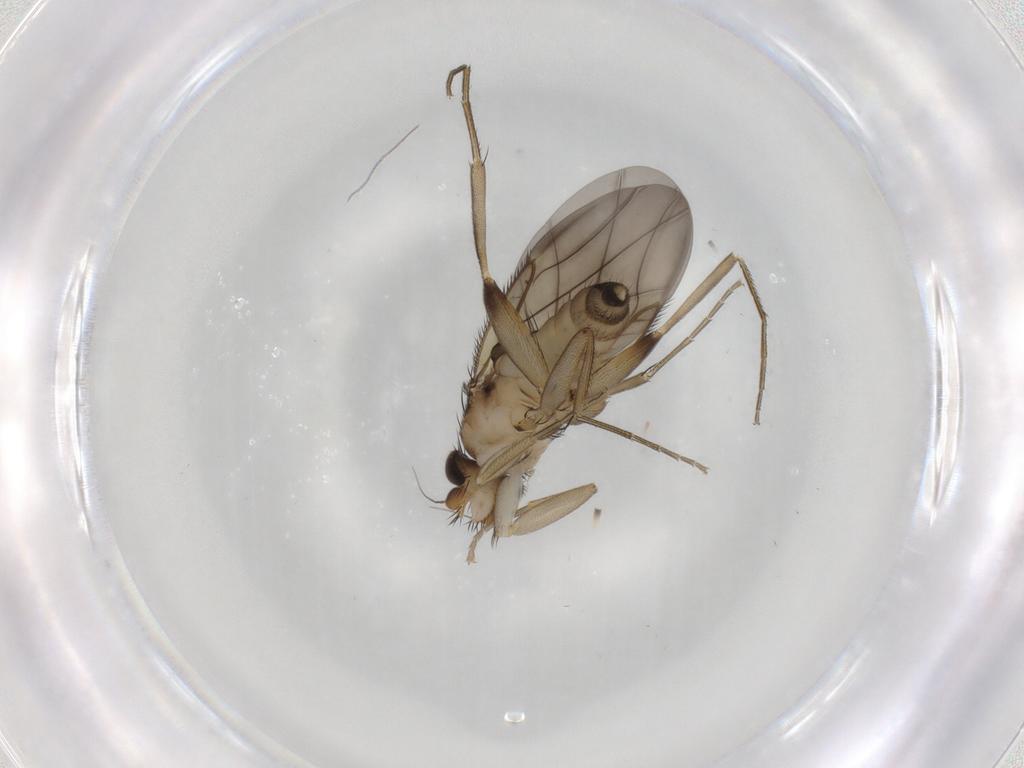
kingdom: Animalia
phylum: Arthropoda
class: Insecta
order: Diptera
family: Phoridae
